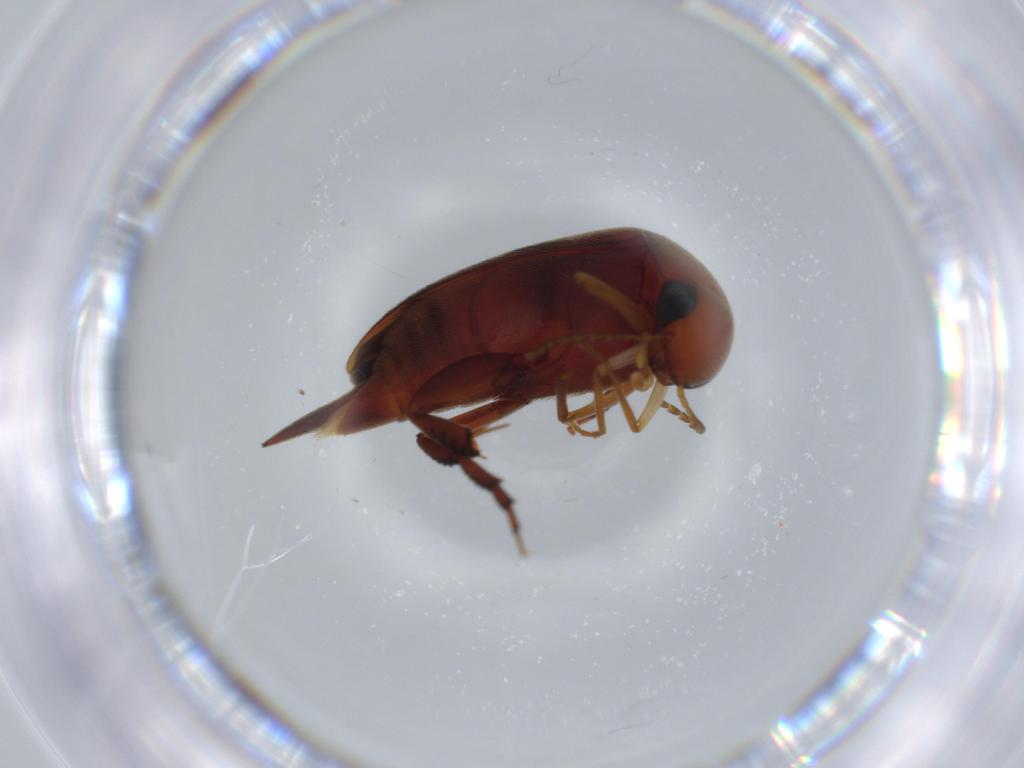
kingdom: Animalia
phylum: Arthropoda
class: Insecta
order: Coleoptera
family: Mordellidae
